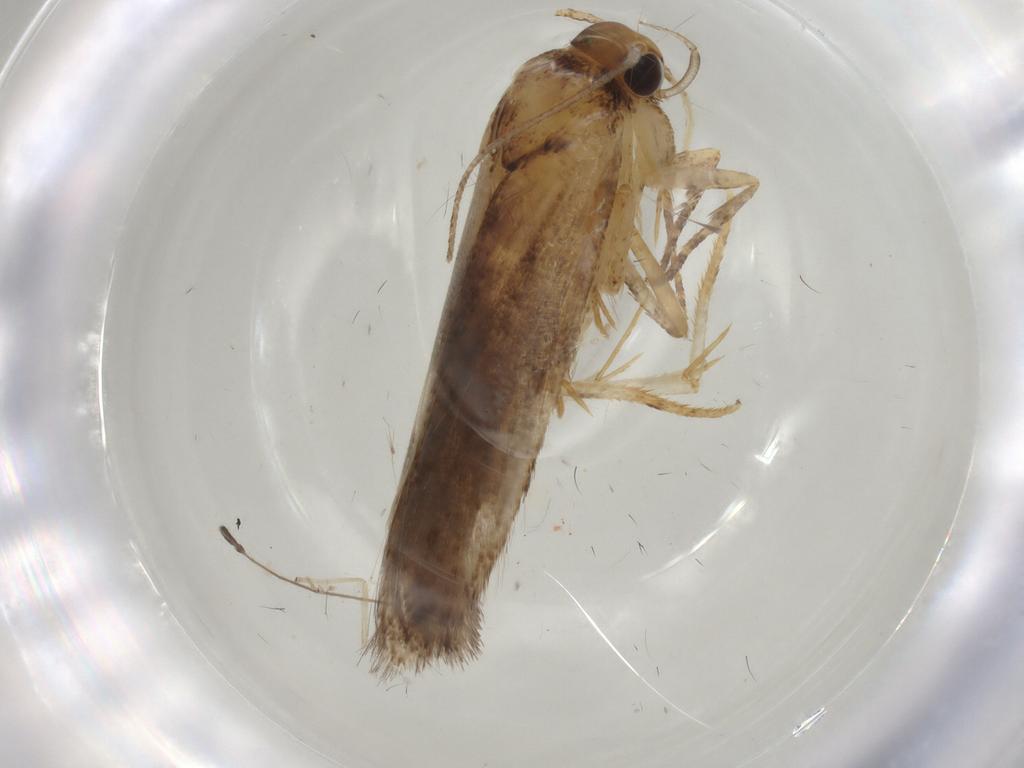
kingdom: Animalia
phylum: Arthropoda
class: Insecta
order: Lepidoptera
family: Gelechiidae
